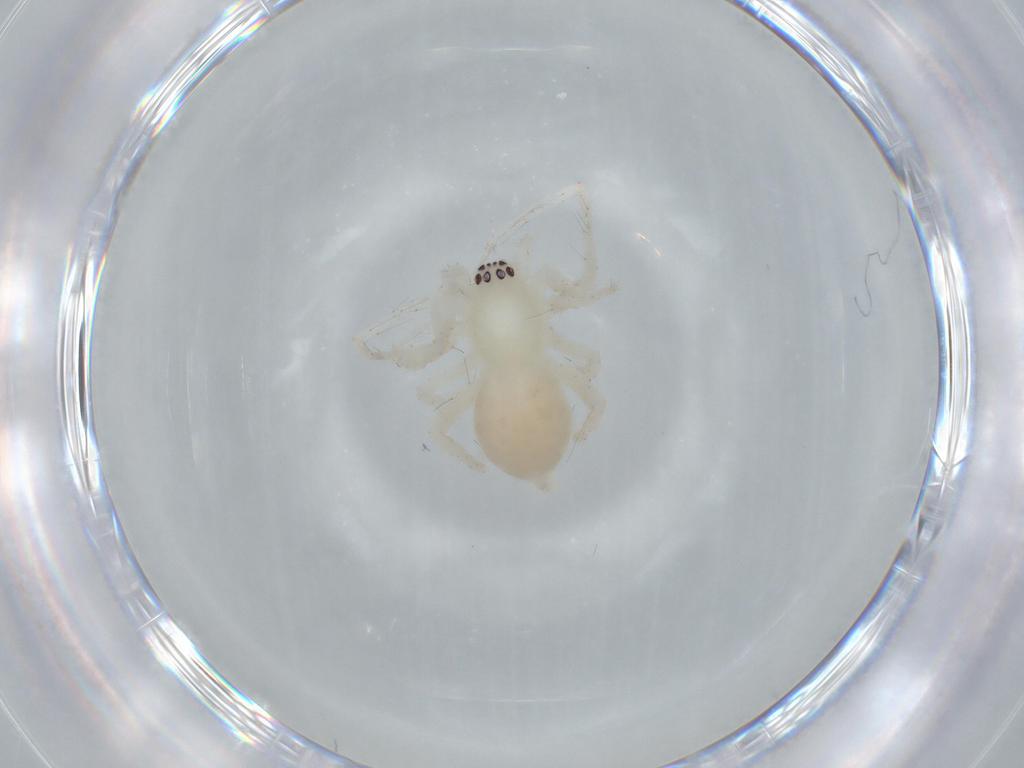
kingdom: Animalia
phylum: Arthropoda
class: Arachnida
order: Araneae
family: Anyphaenidae
